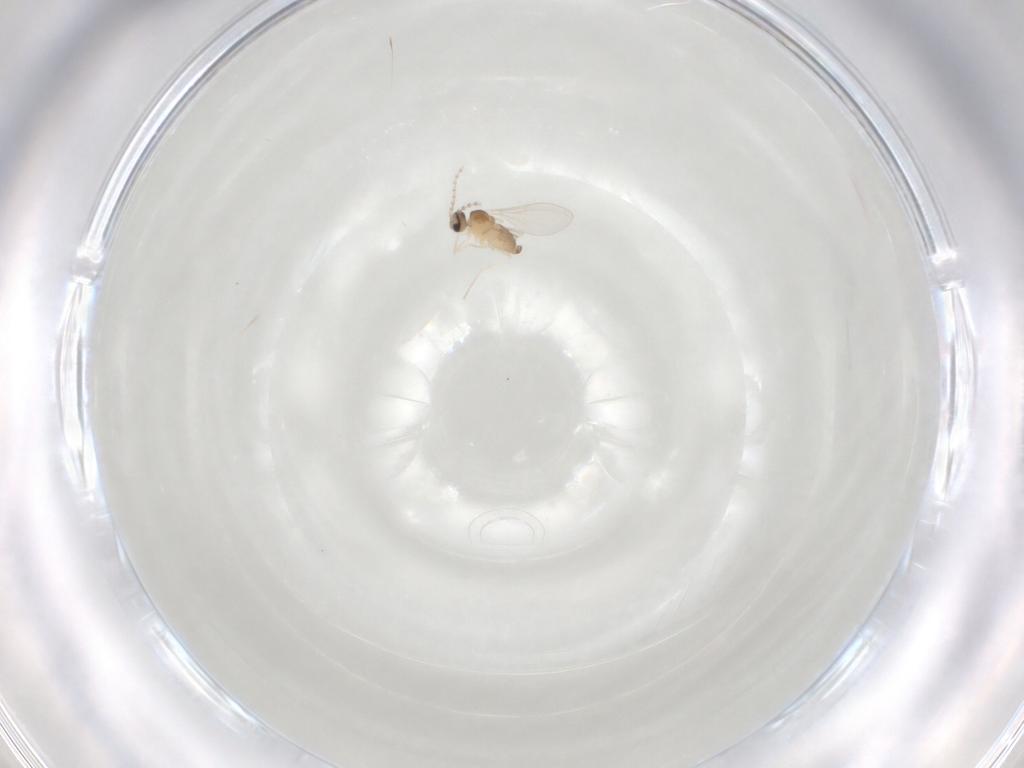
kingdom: Animalia
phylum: Arthropoda
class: Insecta
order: Diptera
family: Cecidomyiidae
